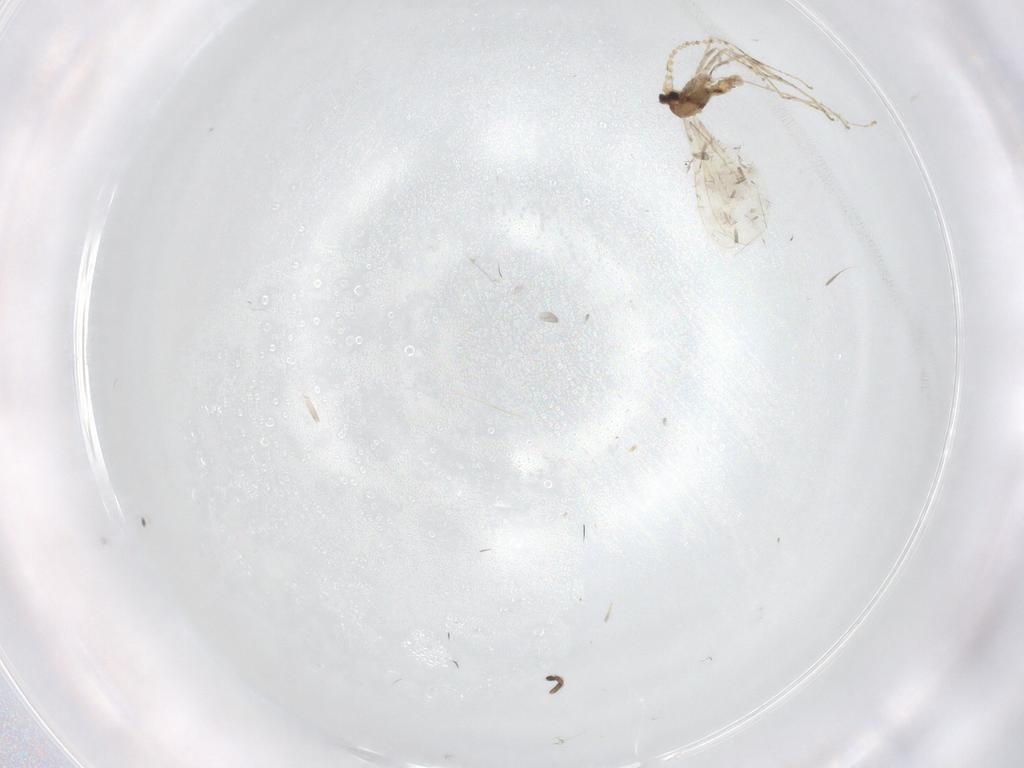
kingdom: Animalia
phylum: Arthropoda
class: Insecta
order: Diptera
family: Cecidomyiidae
